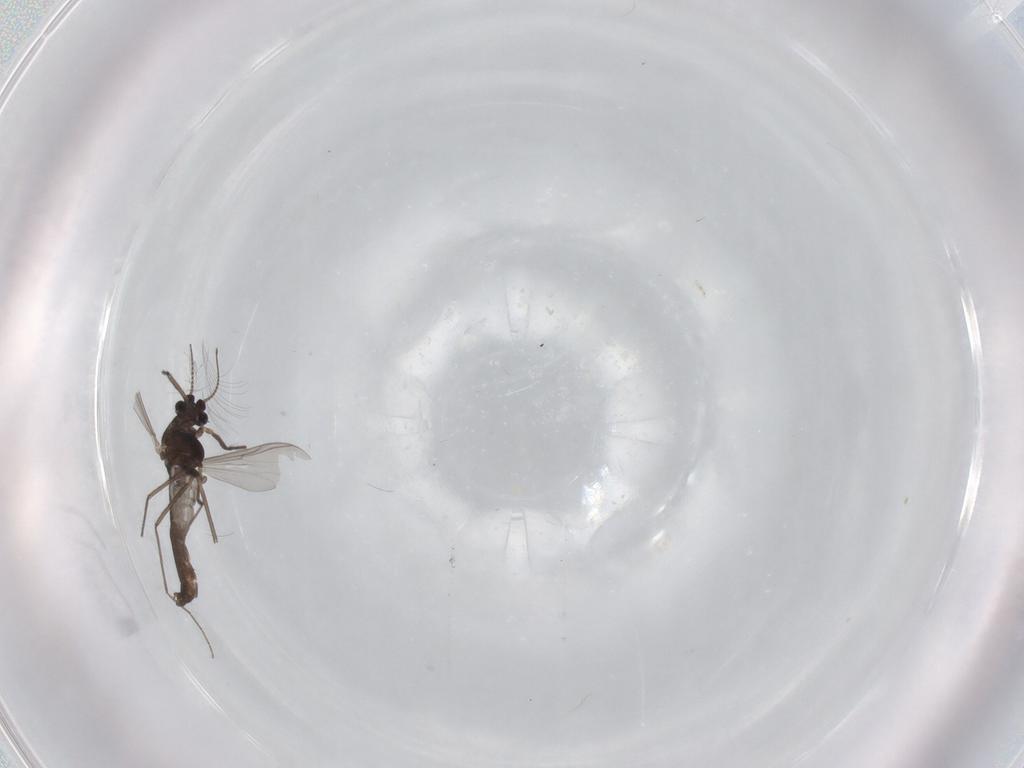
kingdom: Animalia
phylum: Arthropoda
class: Insecta
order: Diptera
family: Chironomidae
